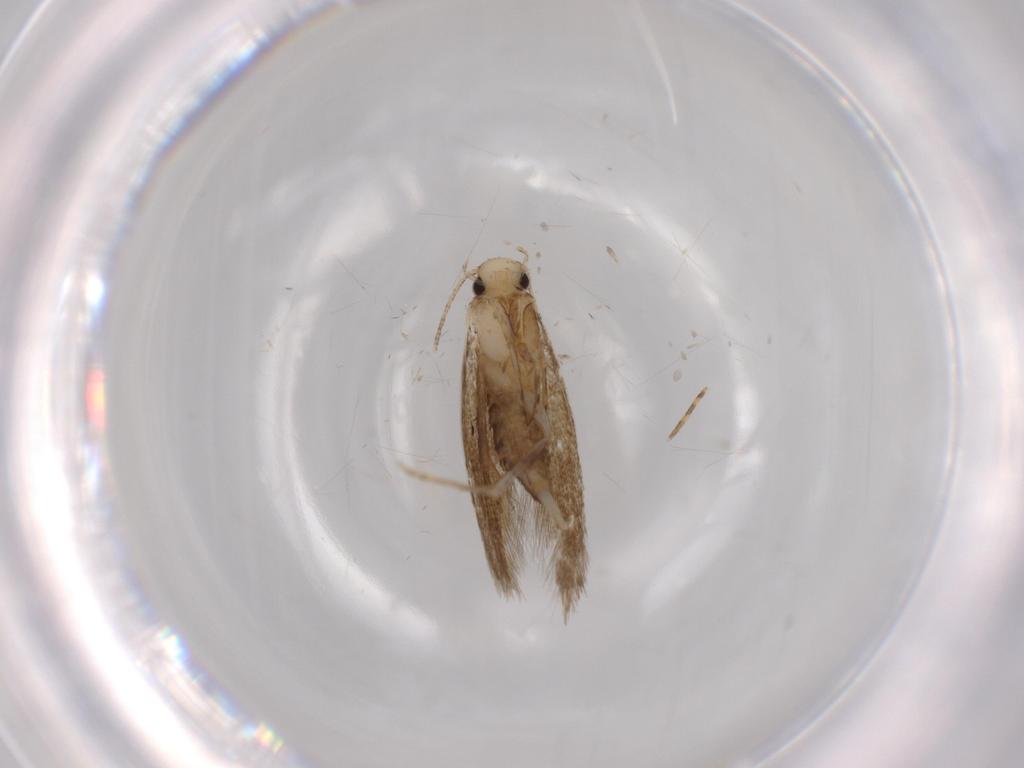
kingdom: Animalia
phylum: Arthropoda
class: Insecta
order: Lepidoptera
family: Tineidae
